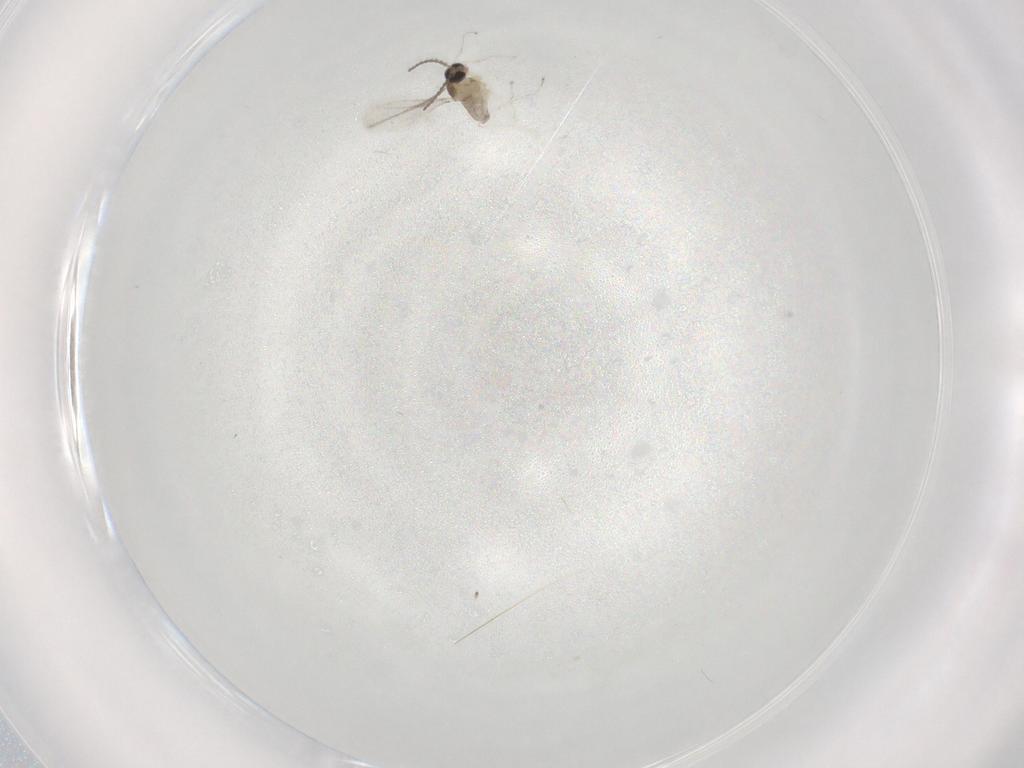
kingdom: Animalia
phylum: Arthropoda
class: Insecta
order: Diptera
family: Cecidomyiidae
